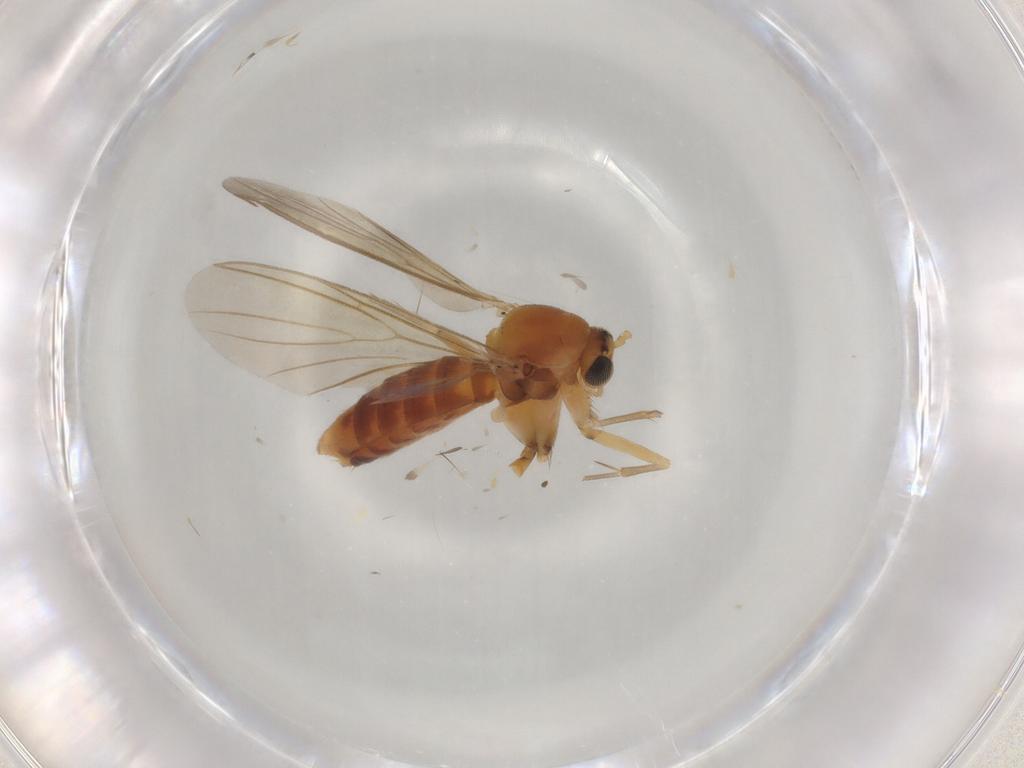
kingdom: Animalia
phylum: Arthropoda
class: Insecta
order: Diptera
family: Mycetophilidae
